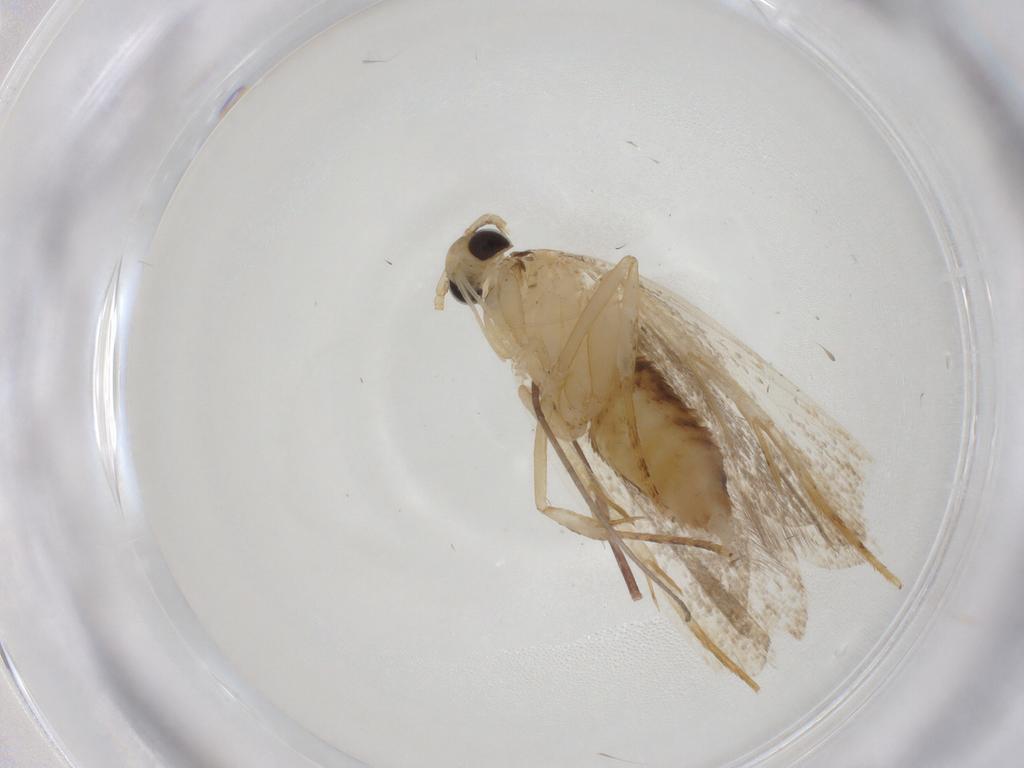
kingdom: Animalia
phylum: Arthropoda
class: Insecta
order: Lepidoptera
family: Lecithoceridae
